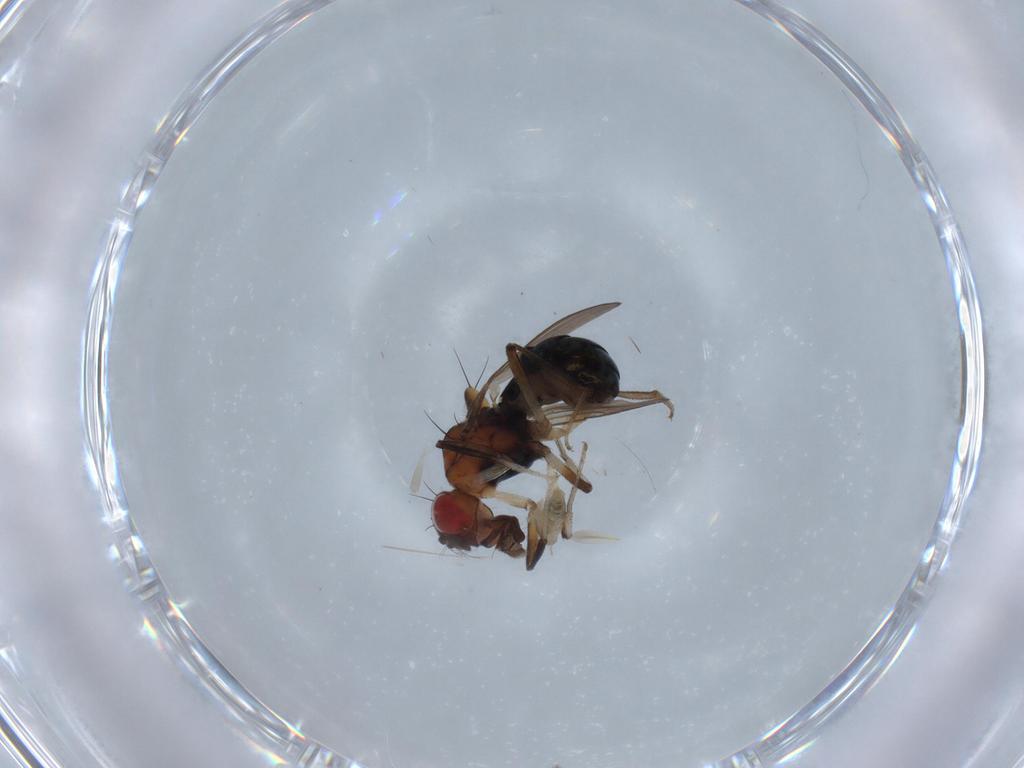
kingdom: Animalia
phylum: Arthropoda
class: Insecta
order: Diptera
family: Cecidomyiidae
